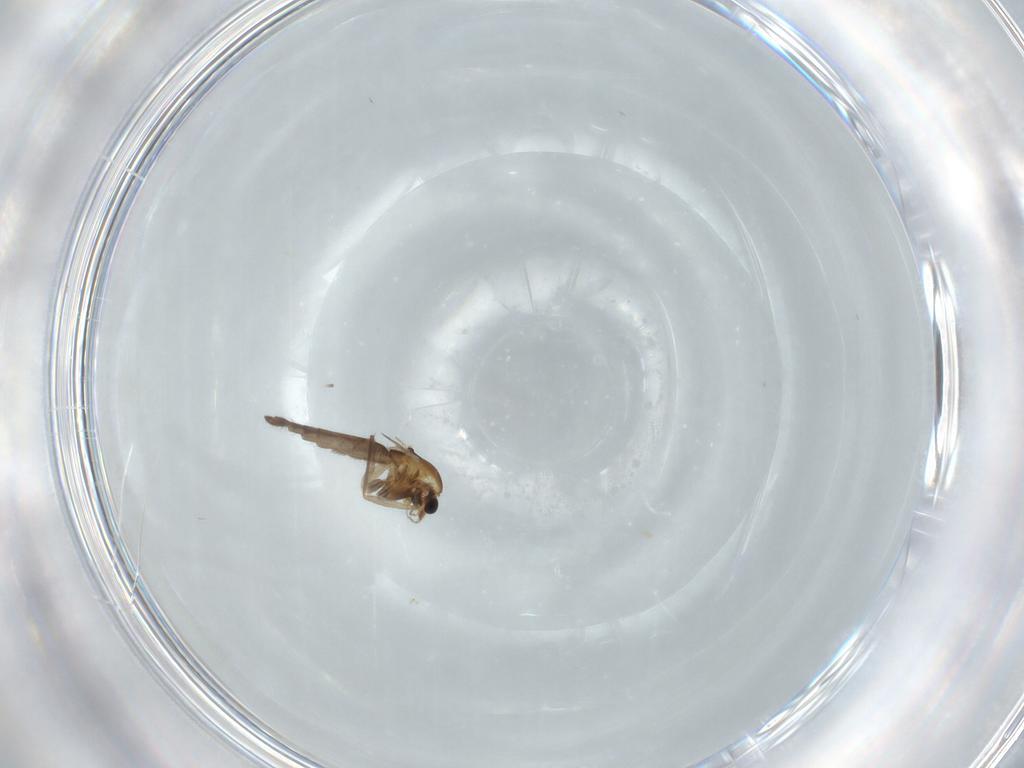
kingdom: Animalia
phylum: Arthropoda
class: Insecta
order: Diptera
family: Chironomidae
